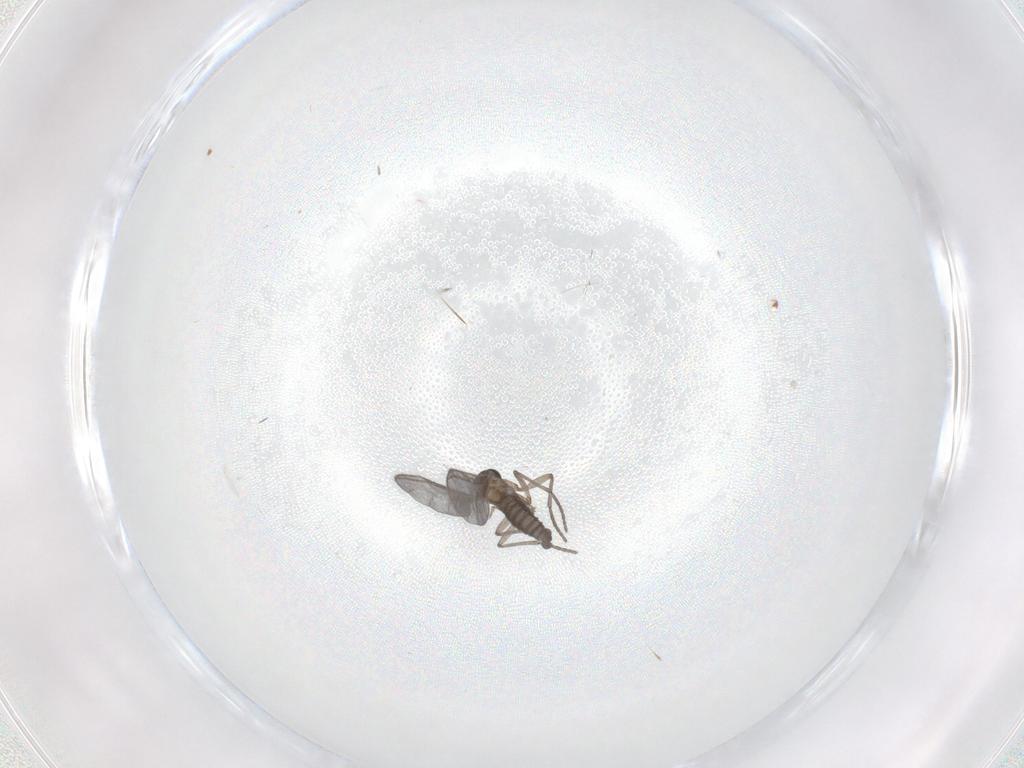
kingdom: Animalia
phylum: Arthropoda
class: Insecta
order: Diptera
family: Sciaridae
